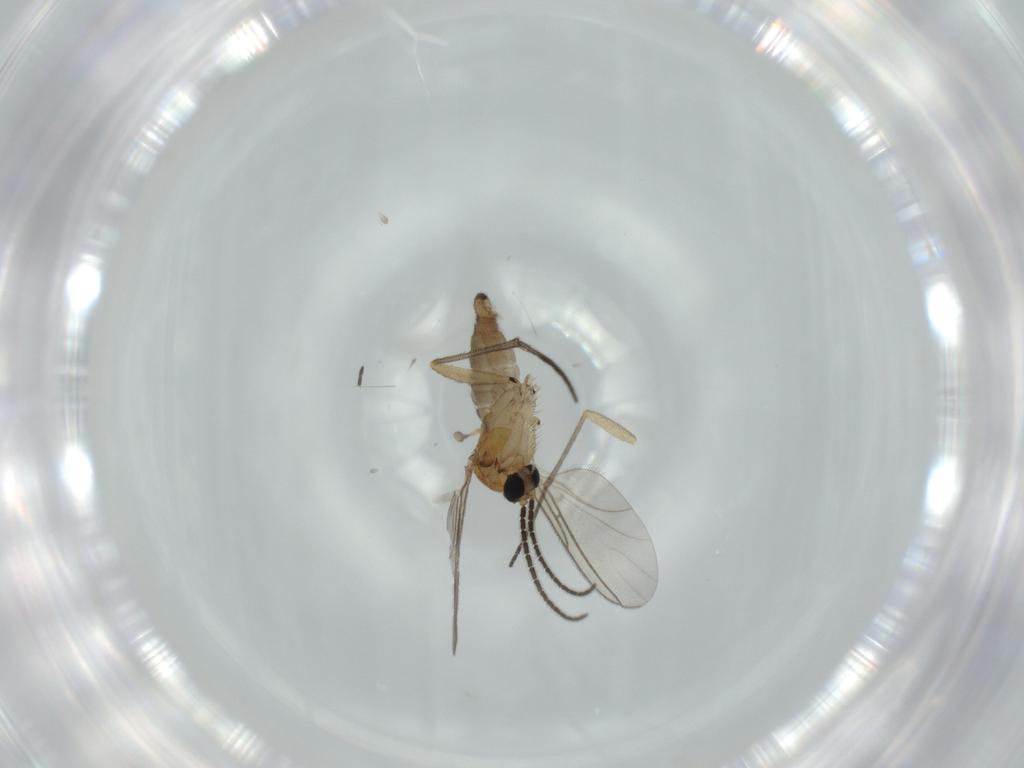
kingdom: Animalia
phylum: Arthropoda
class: Insecta
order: Diptera
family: Sciaridae
